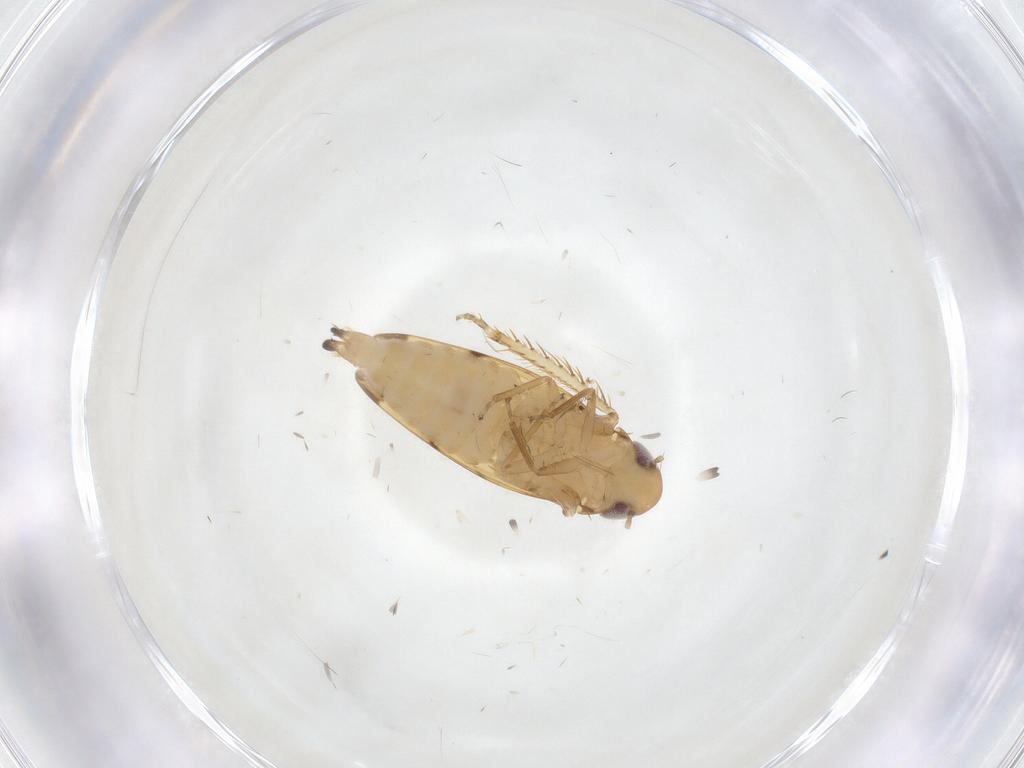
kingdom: Animalia
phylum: Arthropoda
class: Insecta
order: Hemiptera
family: Cicadellidae
